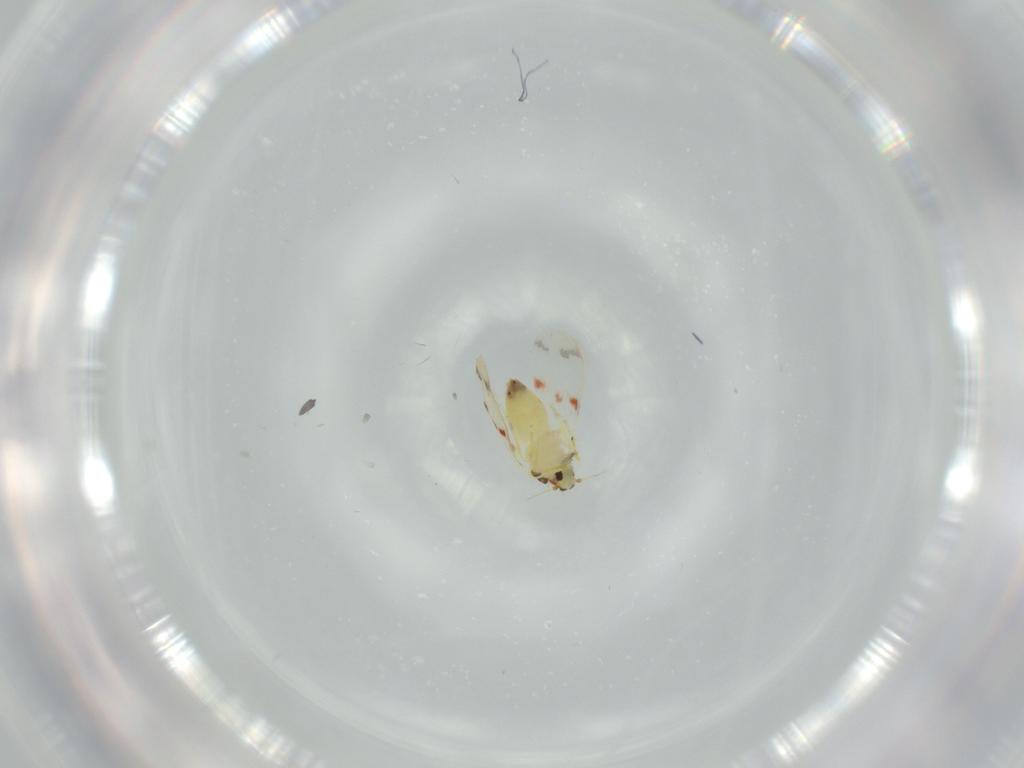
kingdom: Animalia
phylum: Arthropoda
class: Insecta
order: Hemiptera
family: Aleyrodidae
